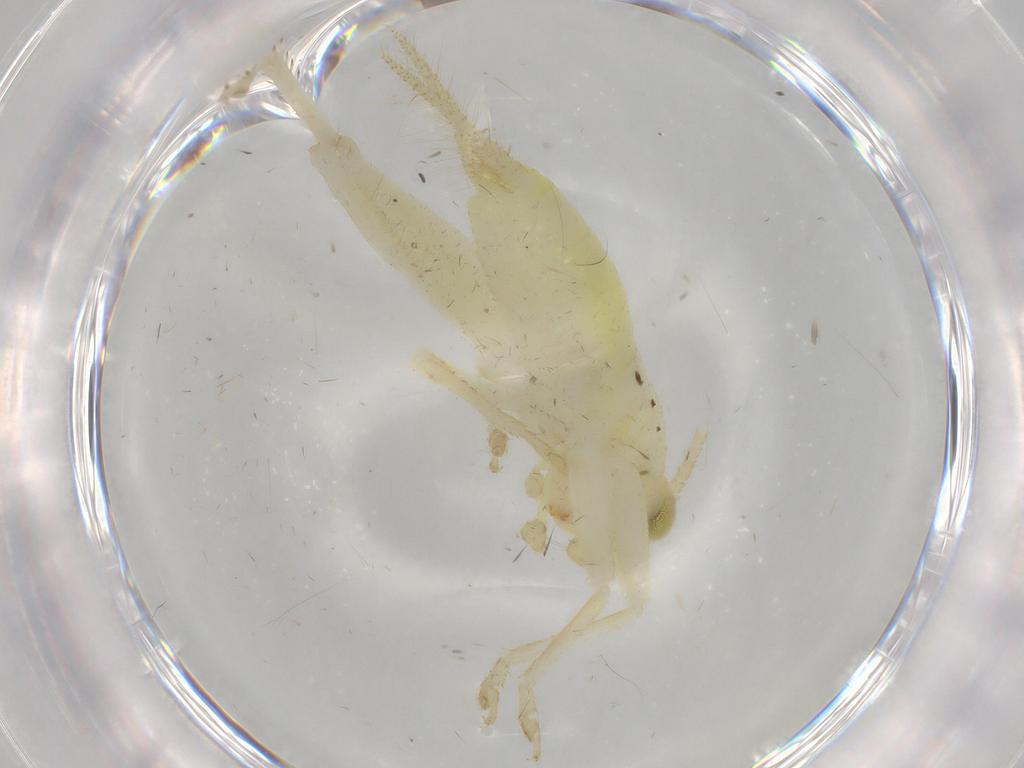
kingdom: Animalia
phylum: Arthropoda
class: Insecta
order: Orthoptera
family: Trigonidiidae
